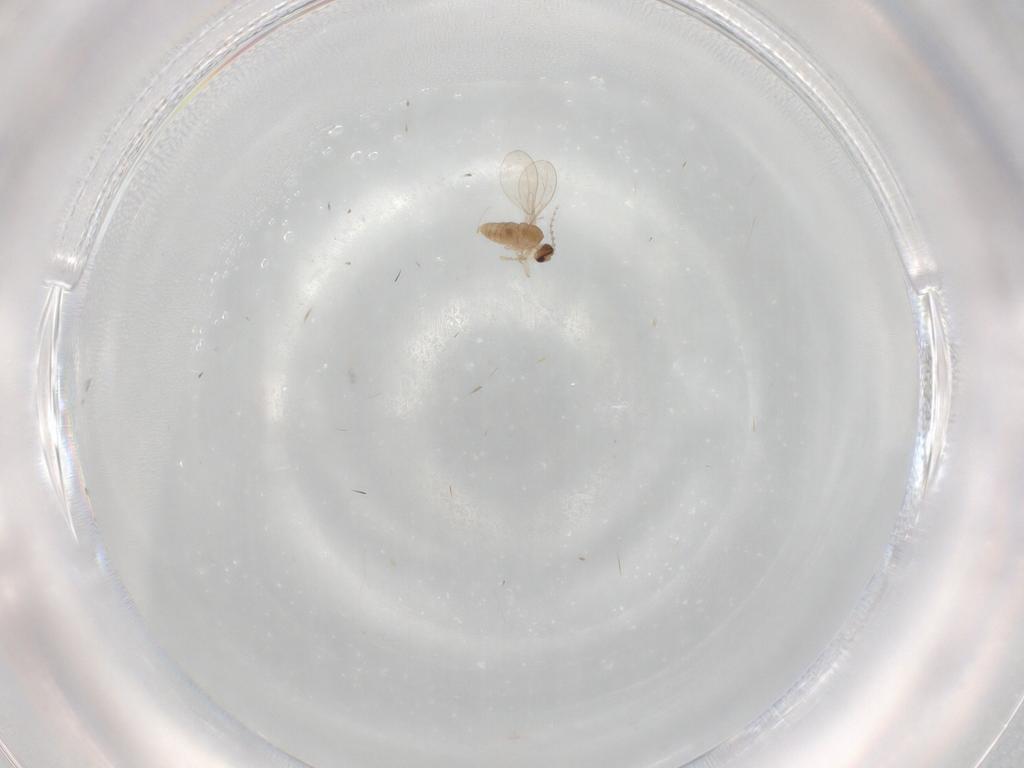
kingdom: Animalia
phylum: Arthropoda
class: Insecta
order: Diptera
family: Cecidomyiidae
